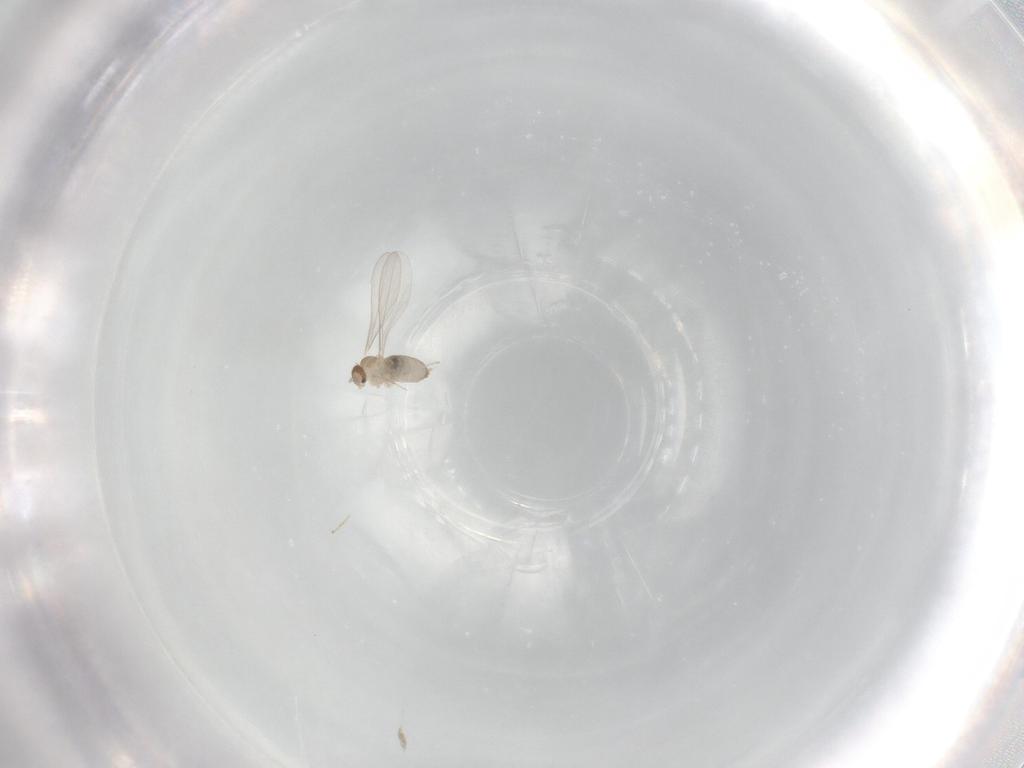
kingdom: Animalia
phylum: Arthropoda
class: Insecta
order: Diptera
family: Cecidomyiidae
